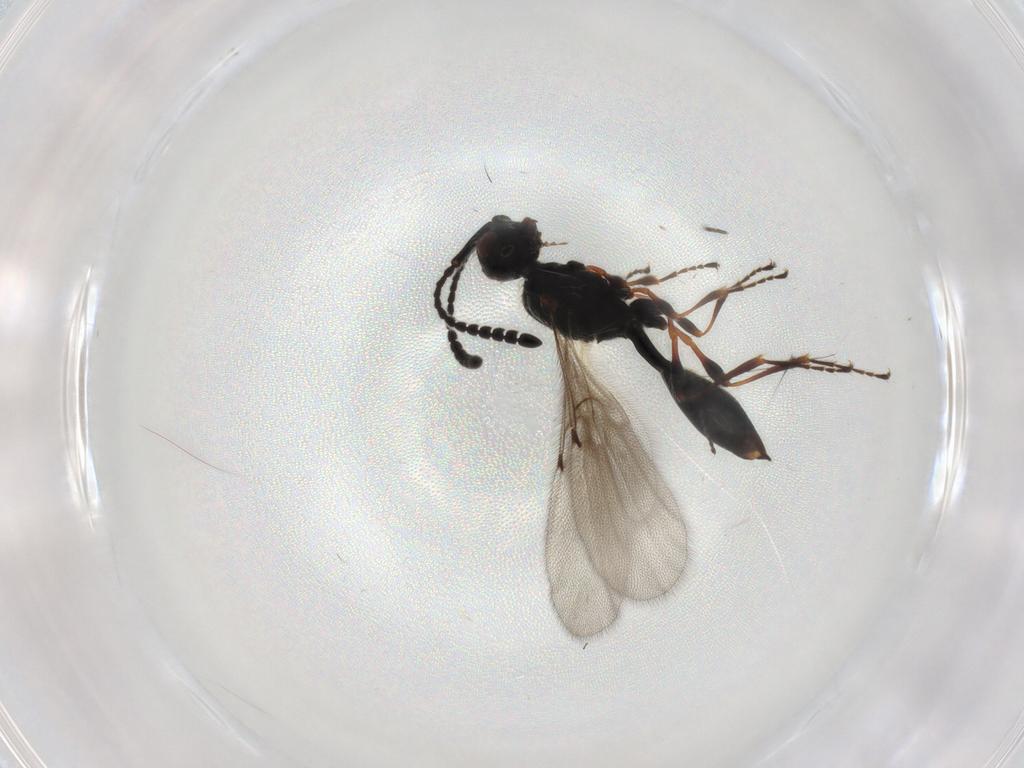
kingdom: Animalia
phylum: Arthropoda
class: Insecta
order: Hymenoptera
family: Diapriidae
